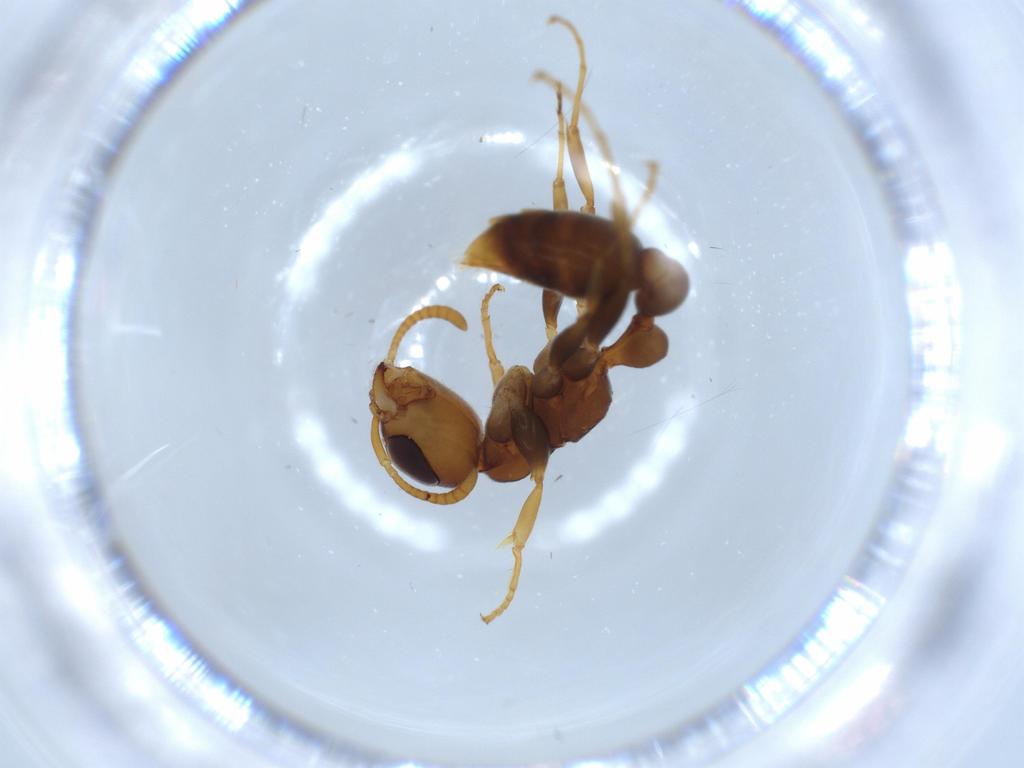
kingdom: Animalia
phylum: Arthropoda
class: Insecta
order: Hymenoptera
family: Formicidae
